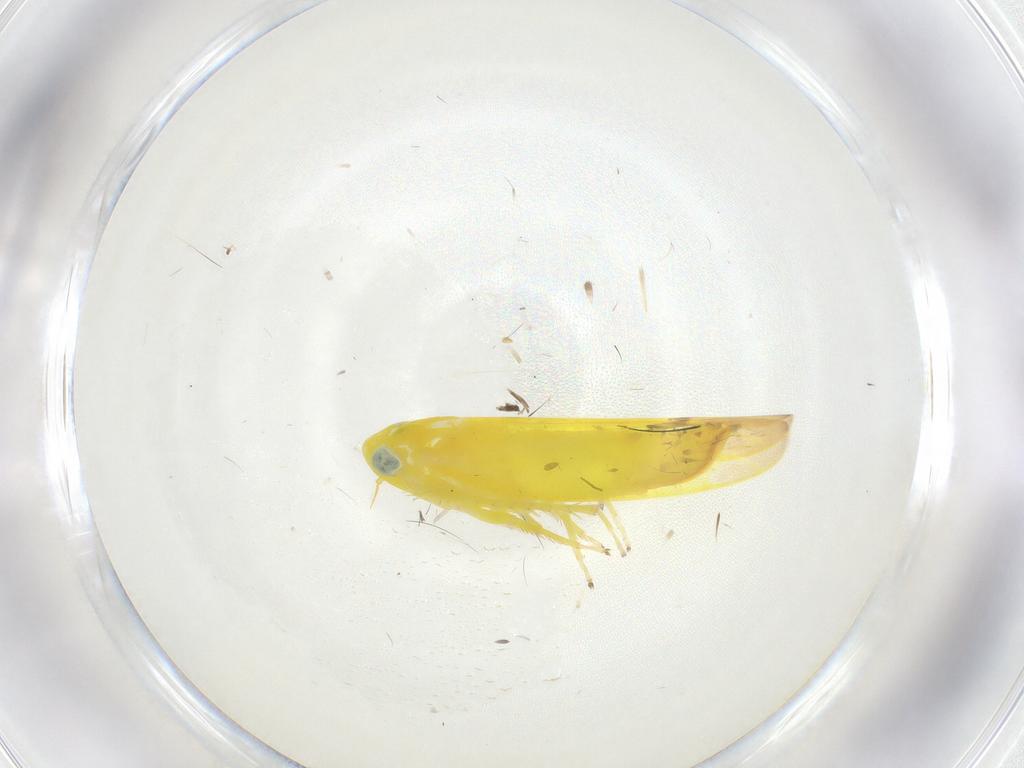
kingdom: Animalia
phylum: Arthropoda
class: Insecta
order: Hemiptera
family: Cicadellidae
